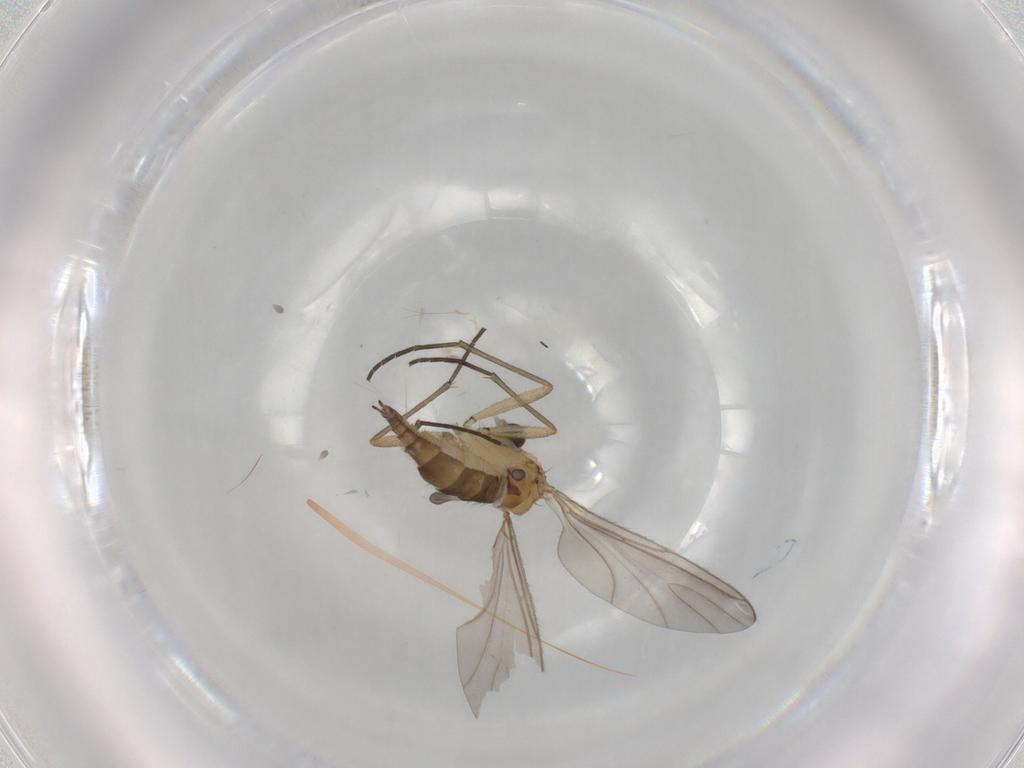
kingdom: Animalia
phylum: Arthropoda
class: Insecta
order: Diptera
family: Sciaridae
